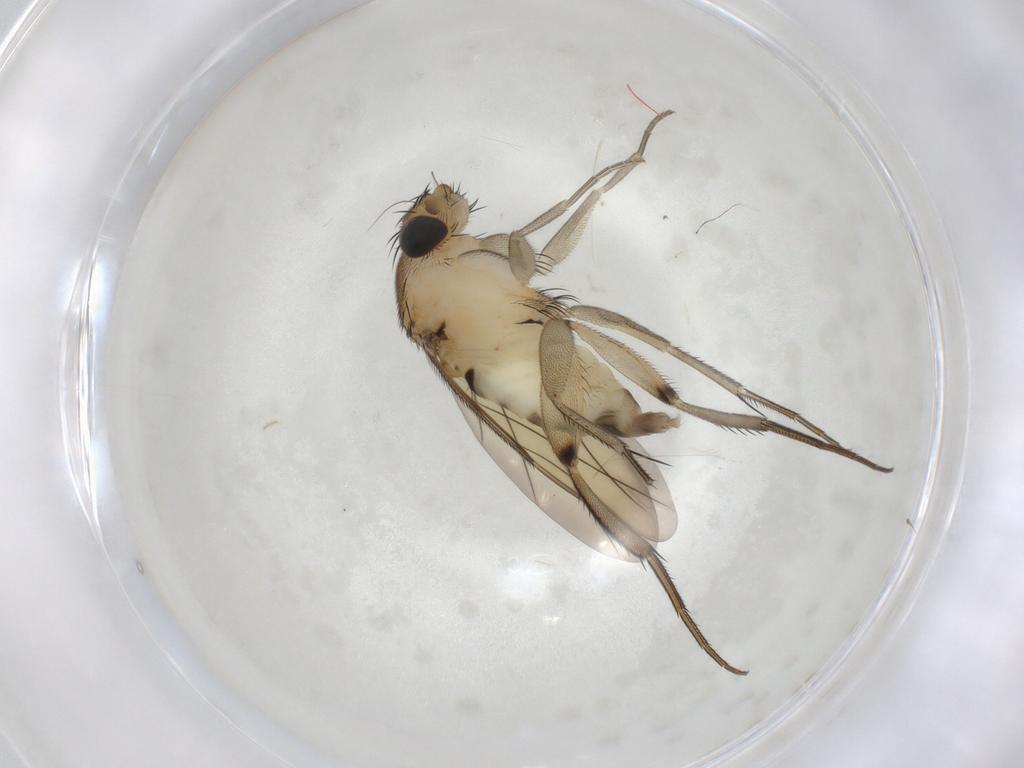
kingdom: Animalia
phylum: Arthropoda
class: Insecta
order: Diptera
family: Phoridae
